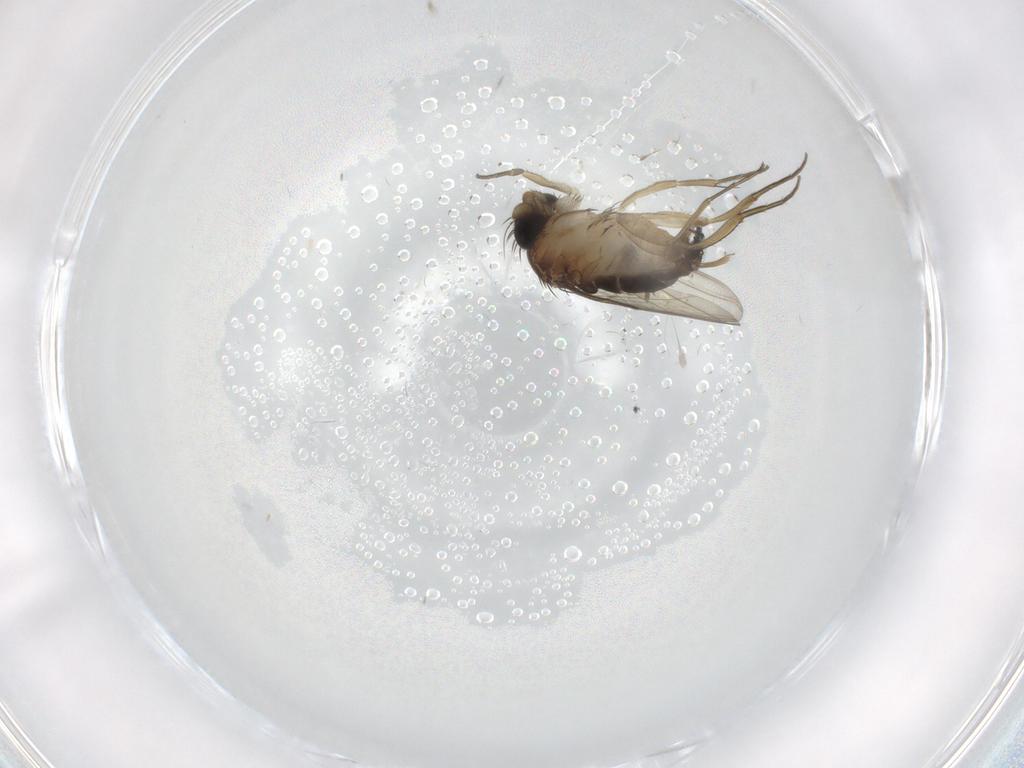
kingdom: Animalia
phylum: Arthropoda
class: Insecta
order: Diptera
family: Phoridae
